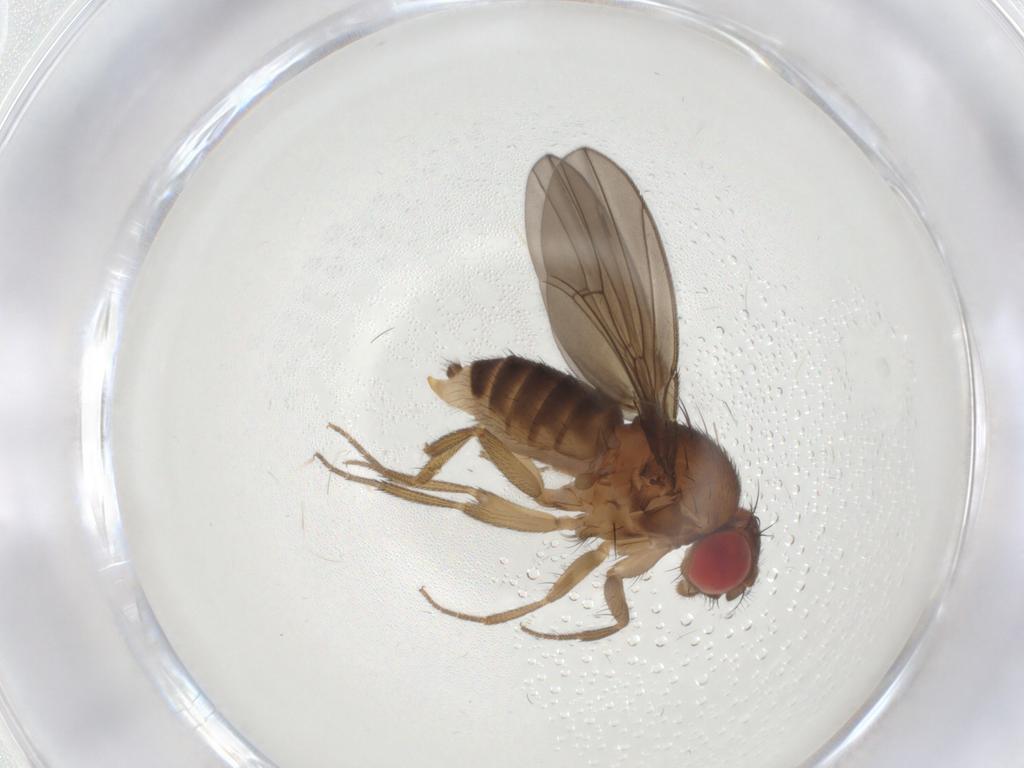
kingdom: Animalia
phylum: Arthropoda
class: Insecta
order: Diptera
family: Drosophilidae
